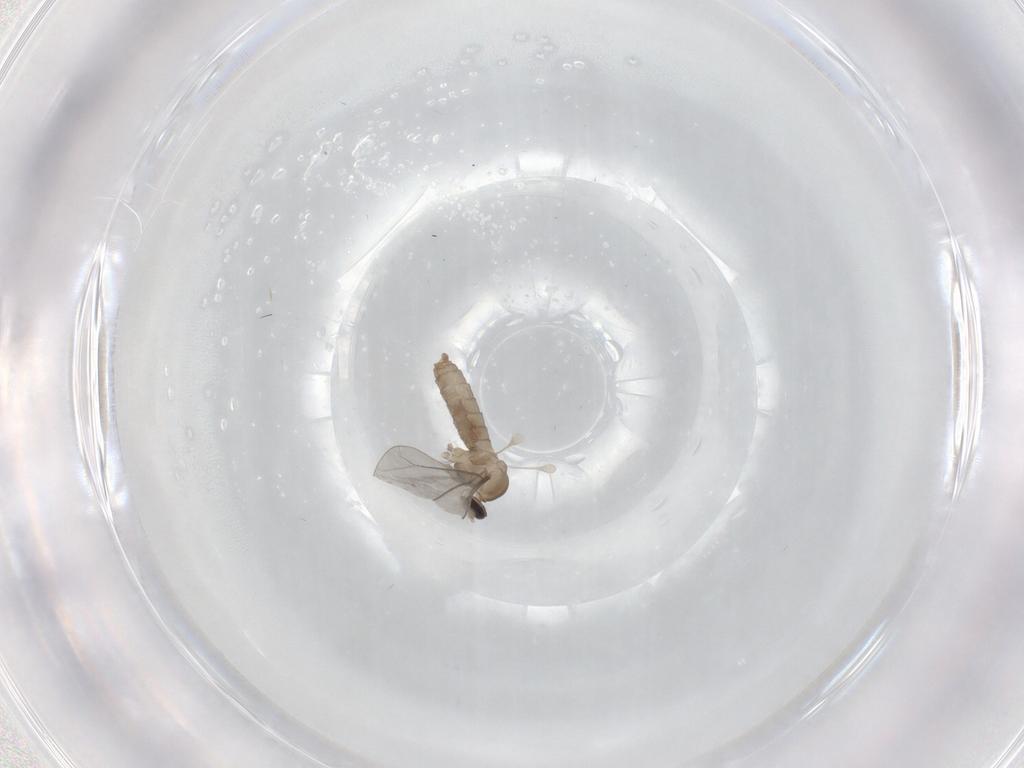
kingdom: Animalia
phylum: Arthropoda
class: Insecta
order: Diptera
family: Cecidomyiidae
